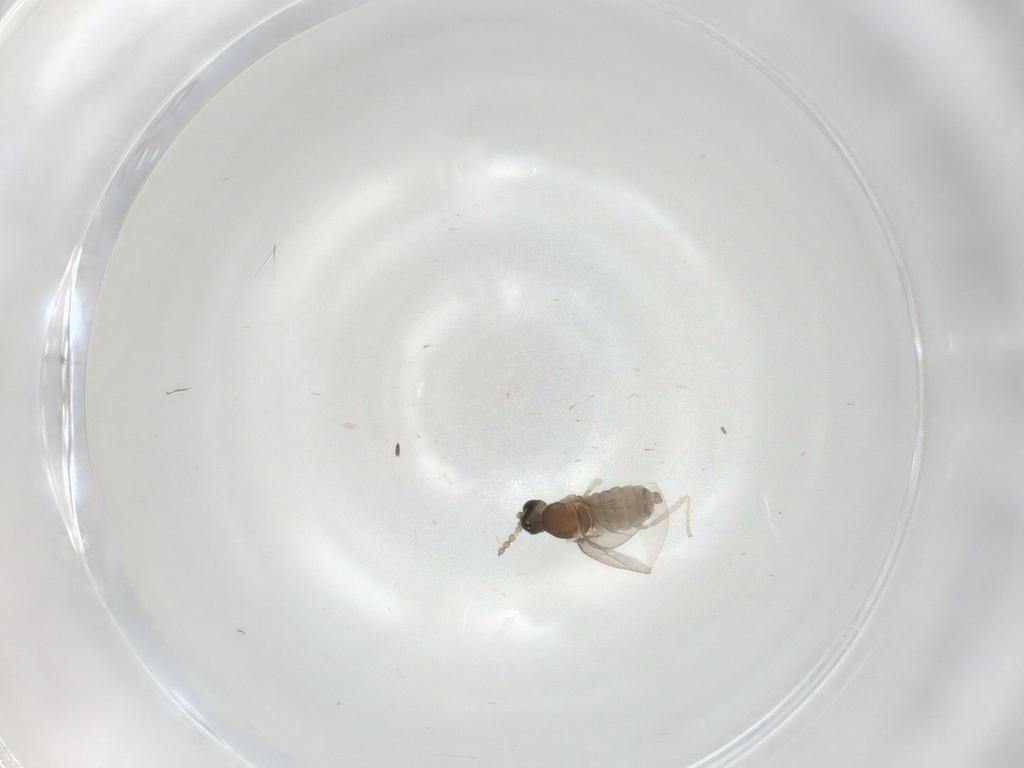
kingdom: Animalia
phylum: Arthropoda
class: Insecta
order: Diptera
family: Cecidomyiidae
